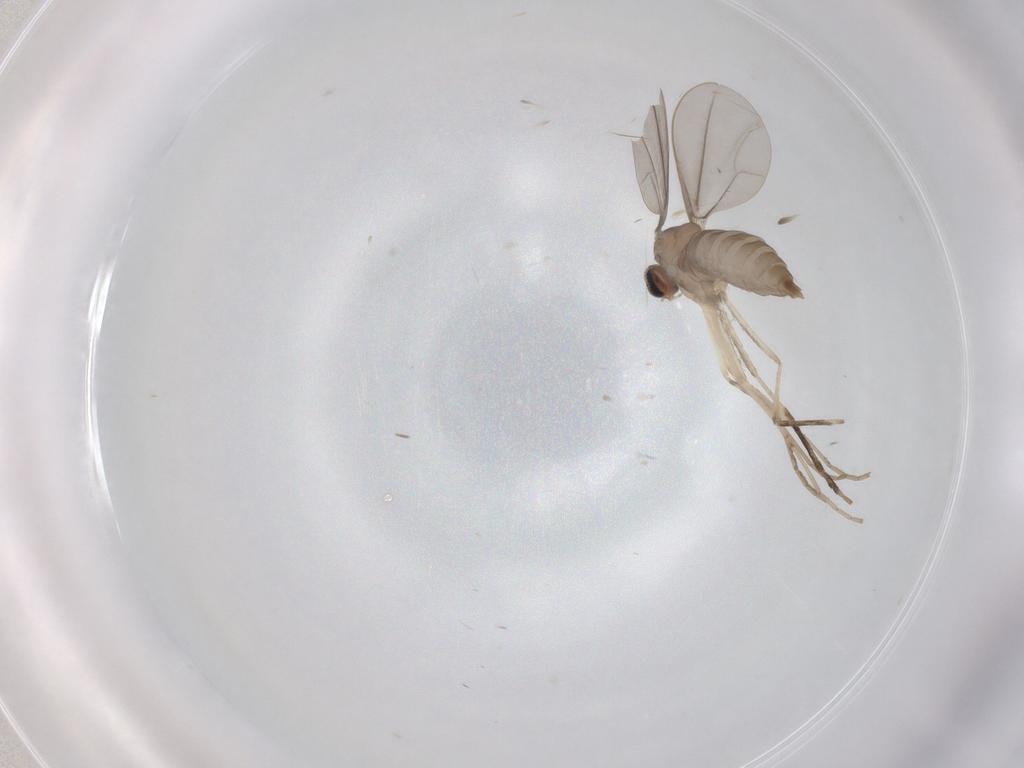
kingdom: Animalia
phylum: Arthropoda
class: Insecta
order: Diptera
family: Cecidomyiidae
